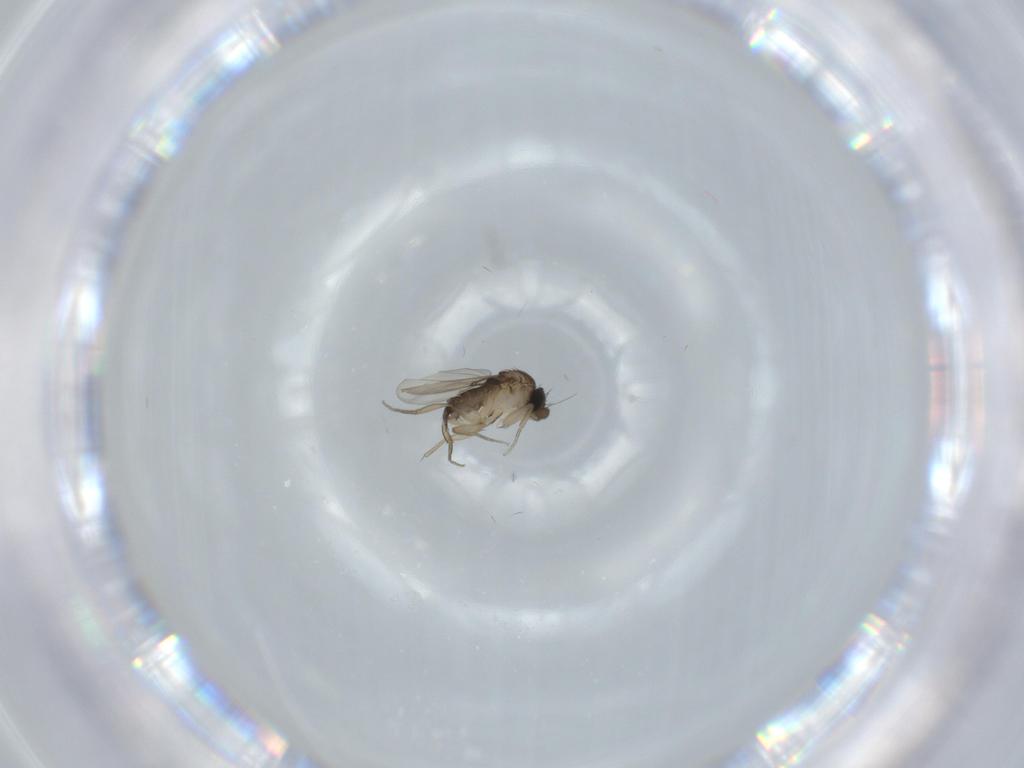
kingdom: Animalia
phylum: Arthropoda
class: Insecta
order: Diptera
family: Phoridae
